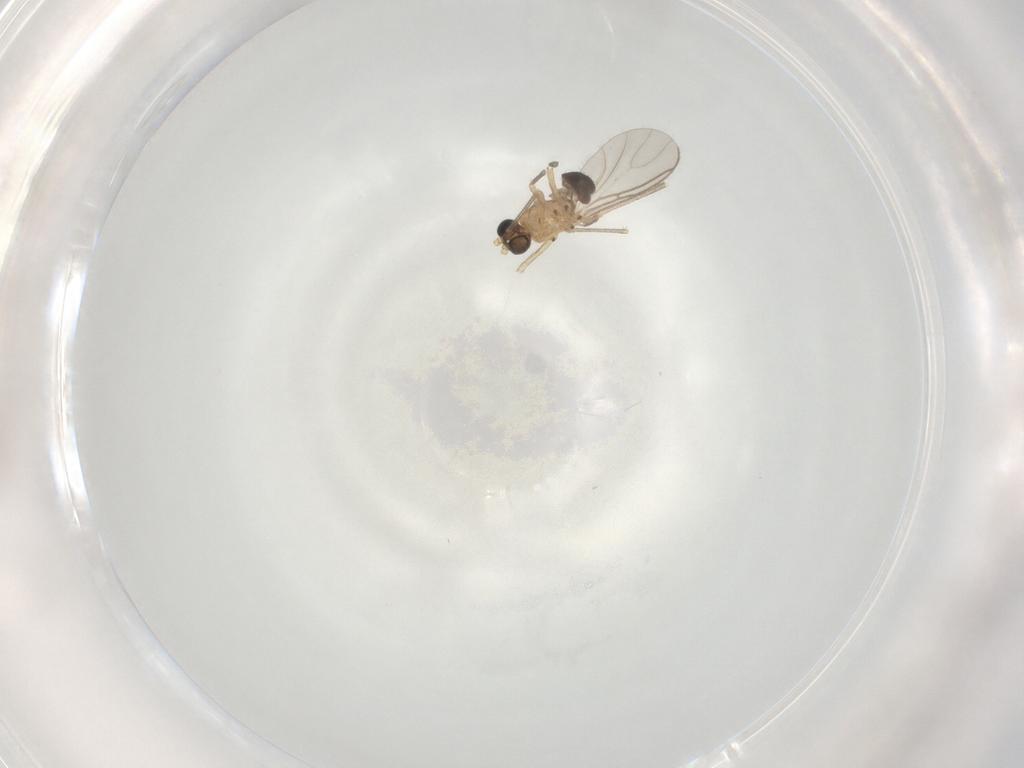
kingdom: Animalia
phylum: Arthropoda
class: Insecta
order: Diptera
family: Sciaridae
